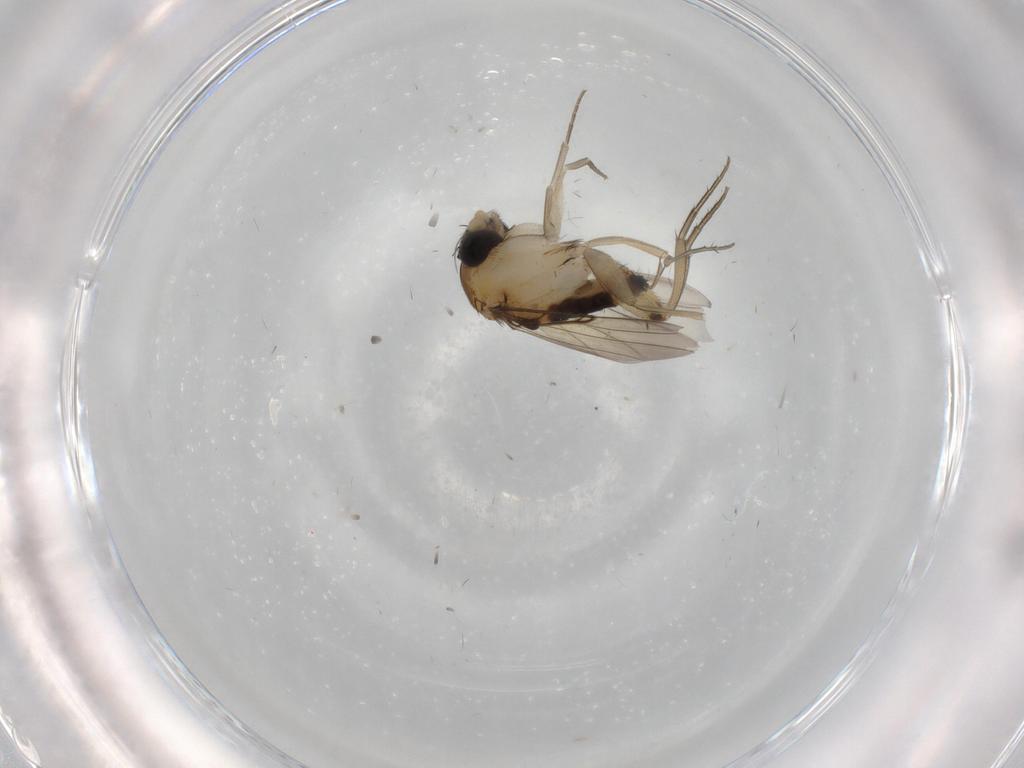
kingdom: Animalia
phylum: Arthropoda
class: Insecta
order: Diptera
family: Phoridae
